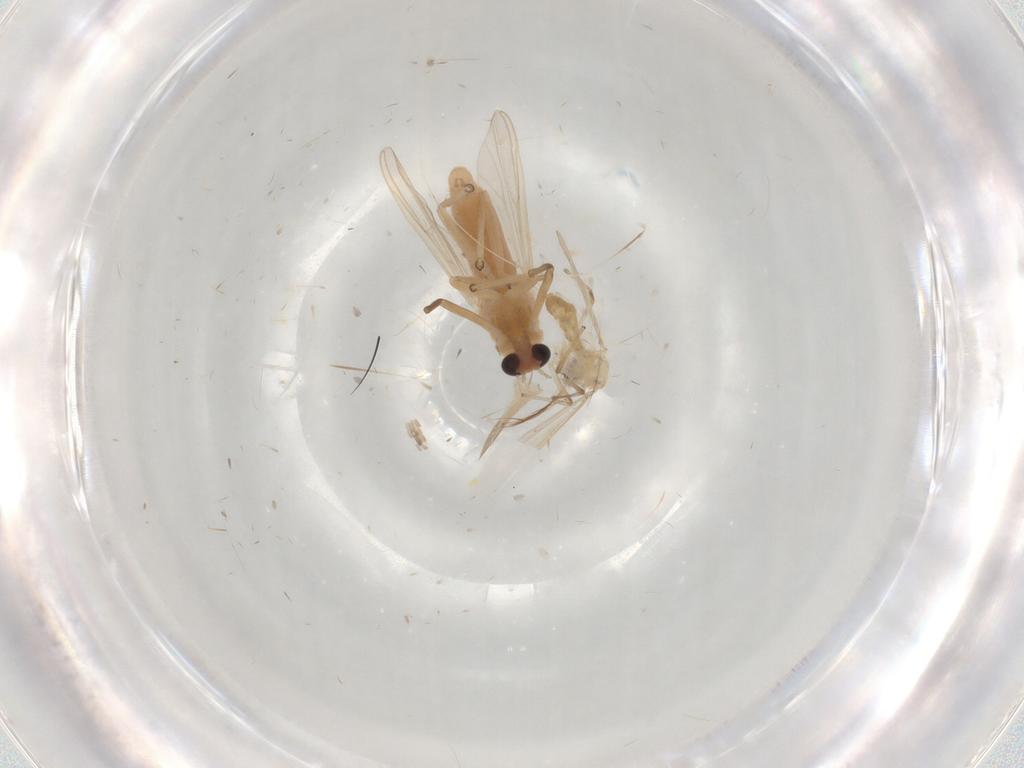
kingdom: Animalia
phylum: Arthropoda
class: Insecta
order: Diptera
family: Chironomidae
